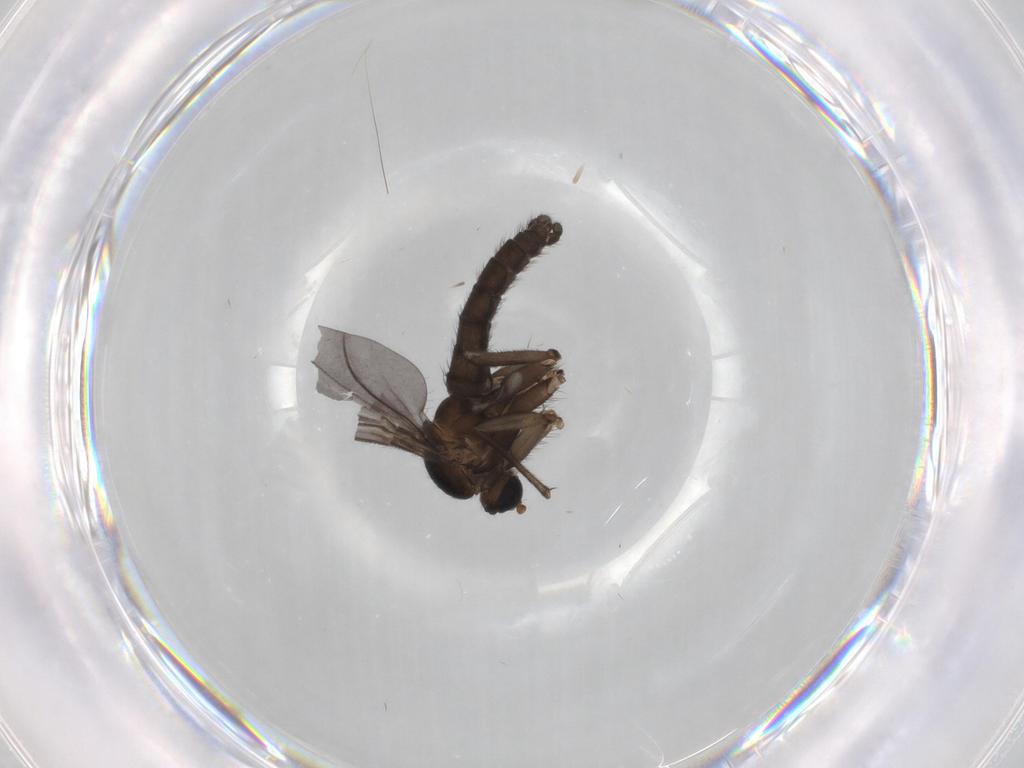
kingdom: Animalia
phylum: Arthropoda
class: Insecta
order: Diptera
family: Sciaridae
